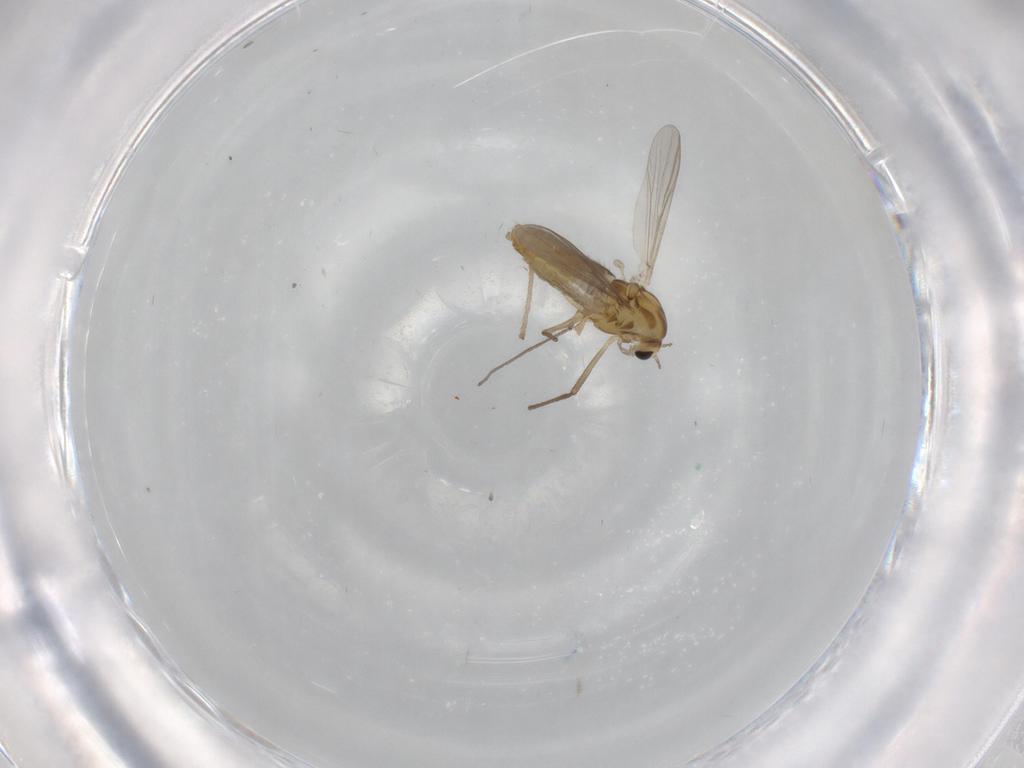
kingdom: Animalia
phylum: Arthropoda
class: Insecta
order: Diptera
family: Chironomidae
